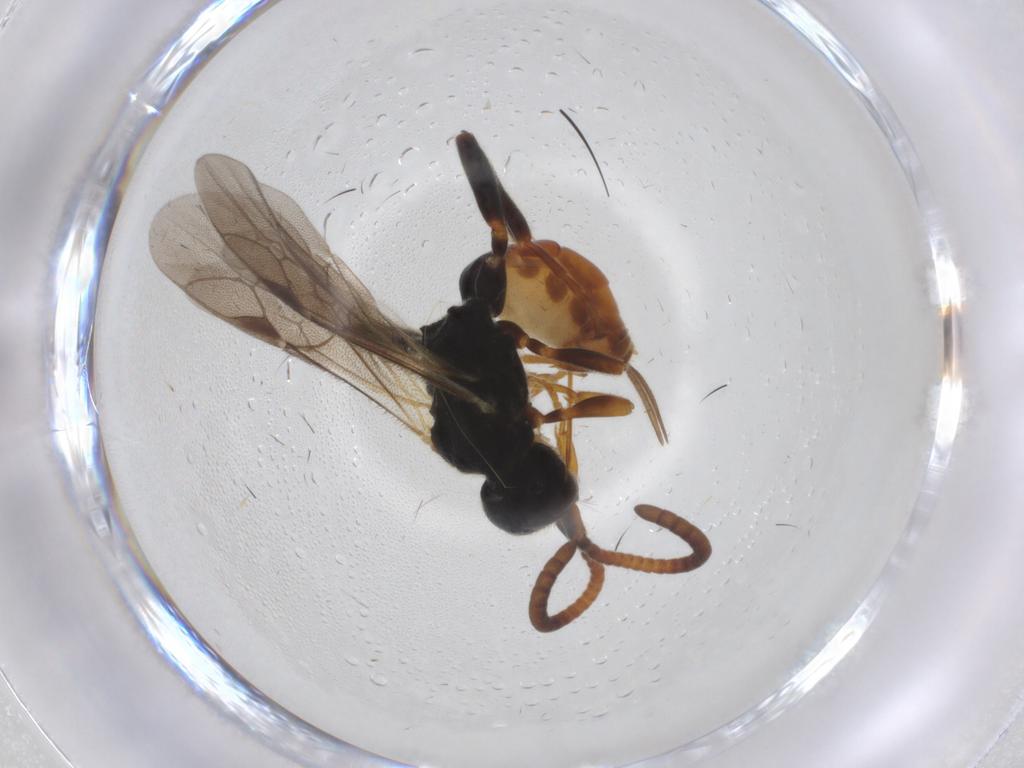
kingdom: Animalia
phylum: Arthropoda
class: Insecta
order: Hymenoptera
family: Ichneumonidae
